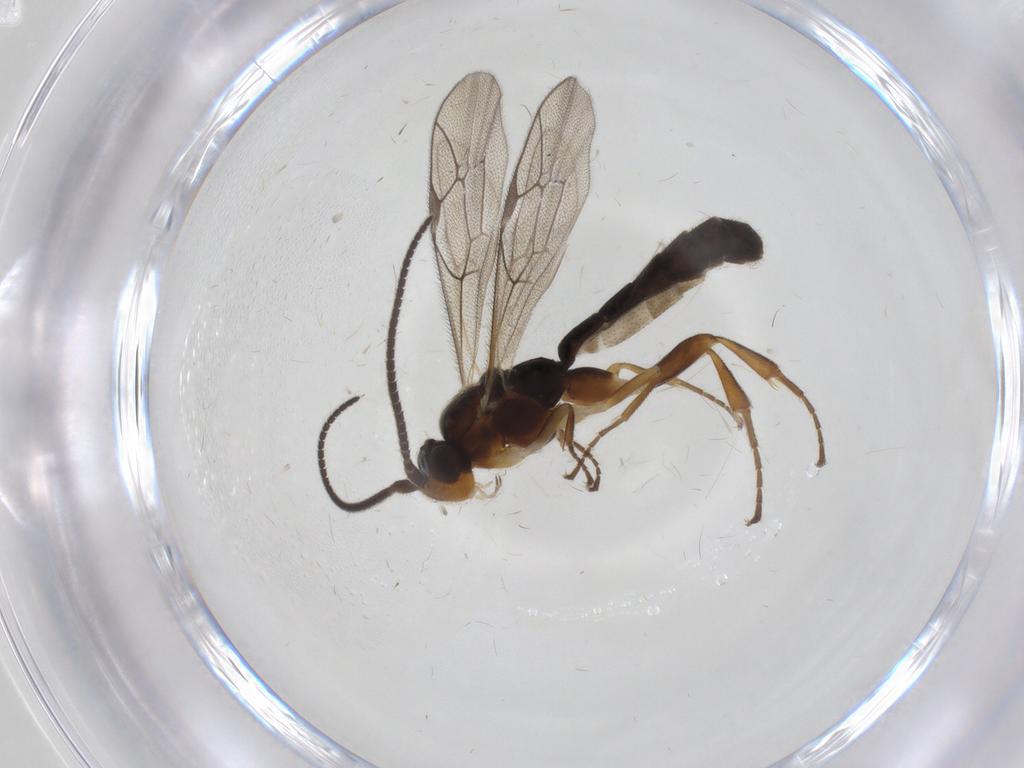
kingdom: Animalia
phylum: Arthropoda
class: Insecta
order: Hymenoptera
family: Ichneumonidae
